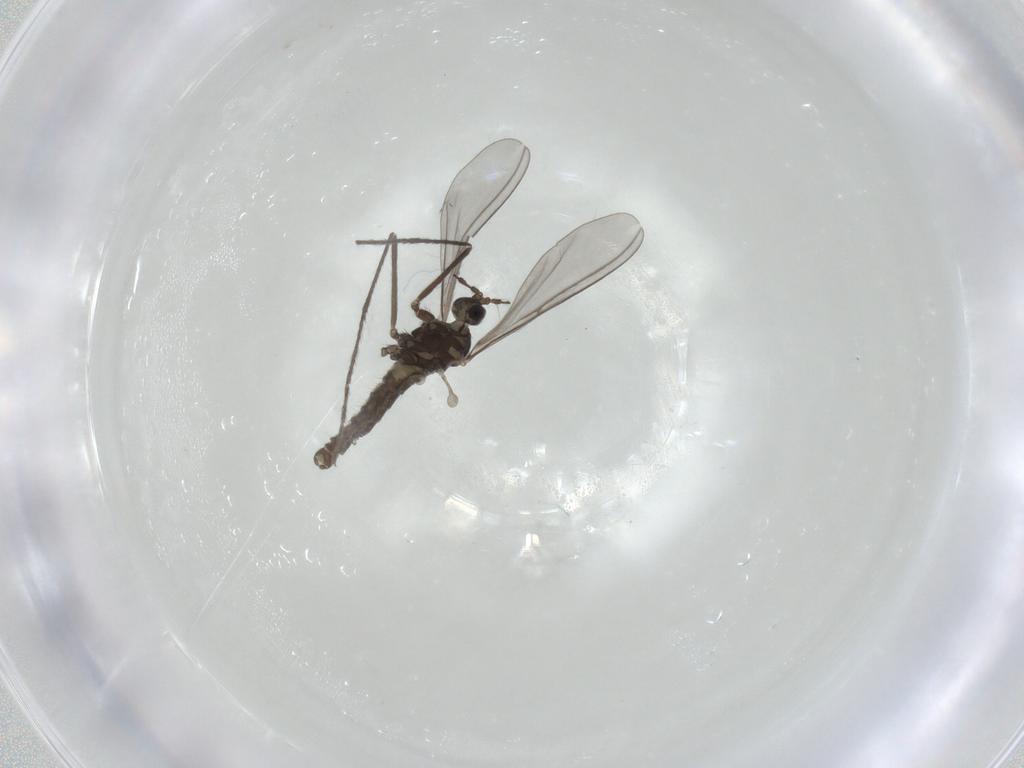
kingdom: Animalia
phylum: Arthropoda
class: Insecta
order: Diptera
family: Cecidomyiidae
